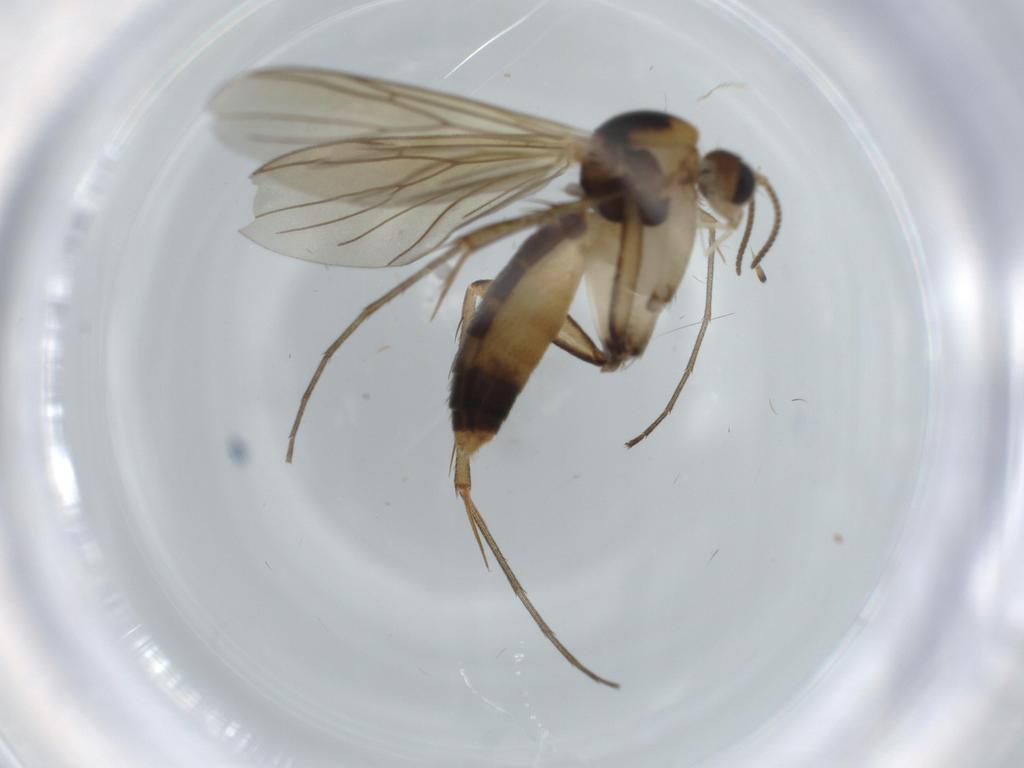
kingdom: Animalia
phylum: Arthropoda
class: Insecta
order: Diptera
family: Mycetophilidae
